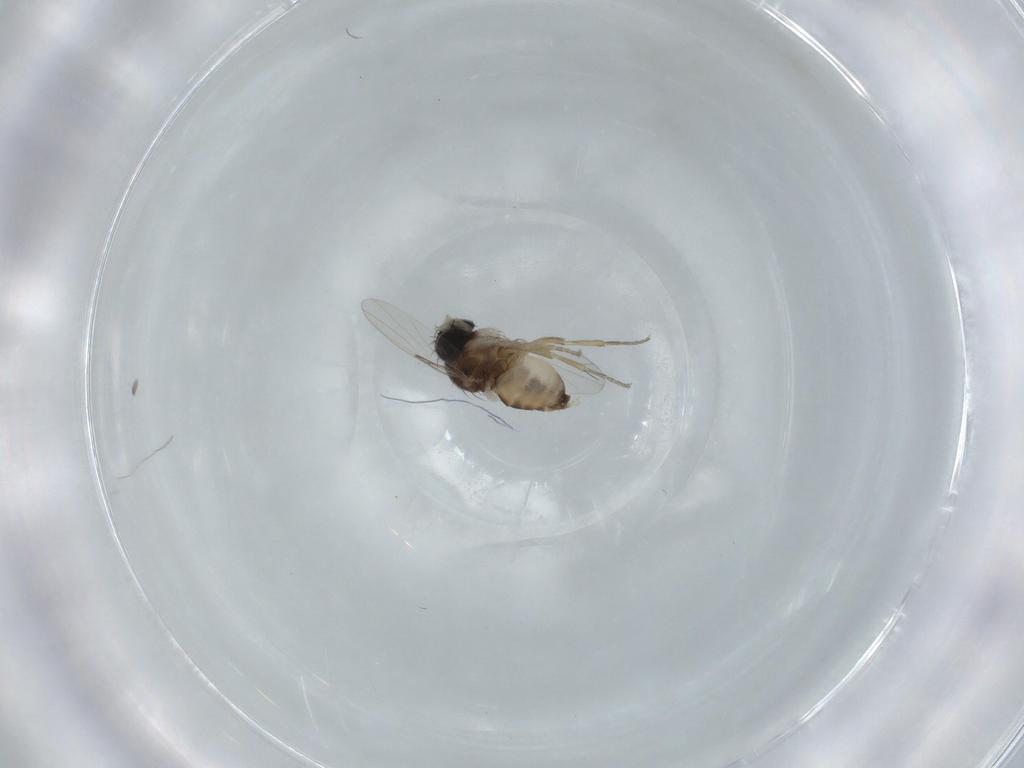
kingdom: Animalia
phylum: Arthropoda
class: Insecta
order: Diptera
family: Phoridae
